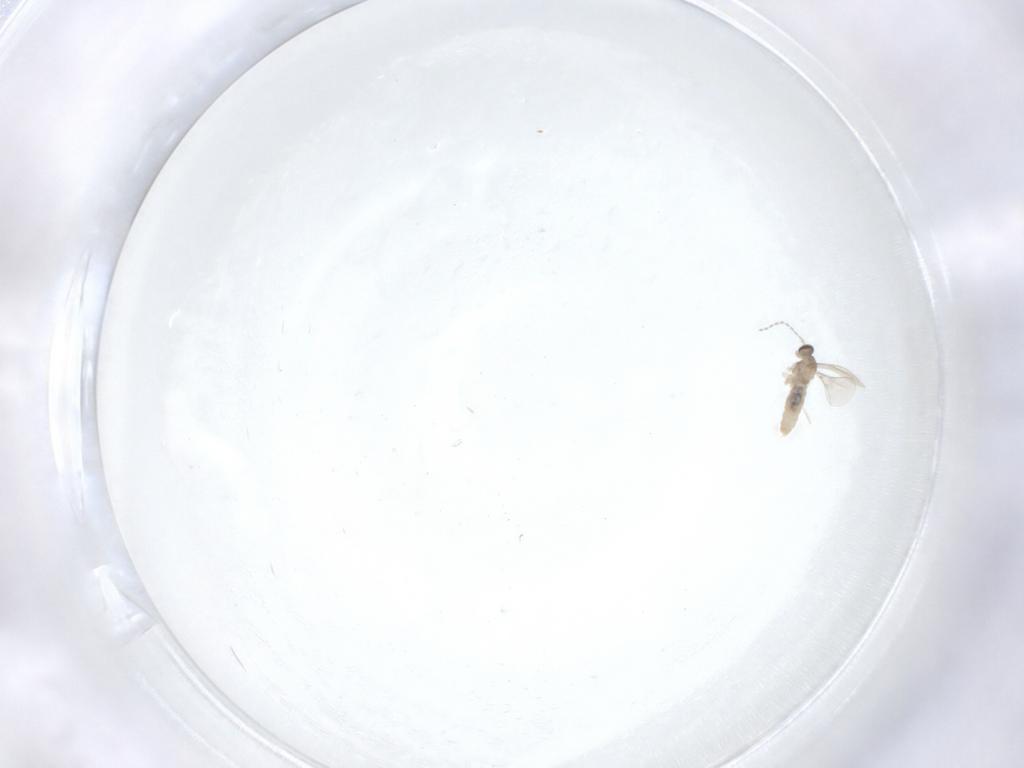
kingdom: Animalia
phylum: Arthropoda
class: Insecta
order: Diptera
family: Cecidomyiidae
